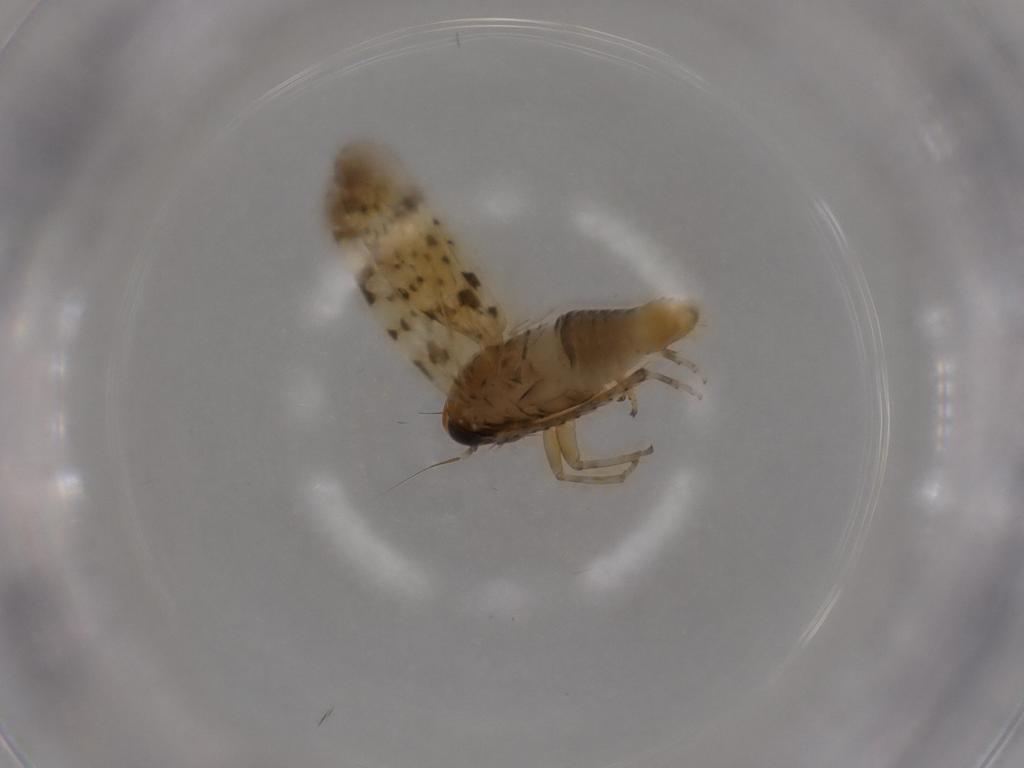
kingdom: Animalia
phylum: Arthropoda
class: Insecta
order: Hemiptera
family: Cicadellidae
